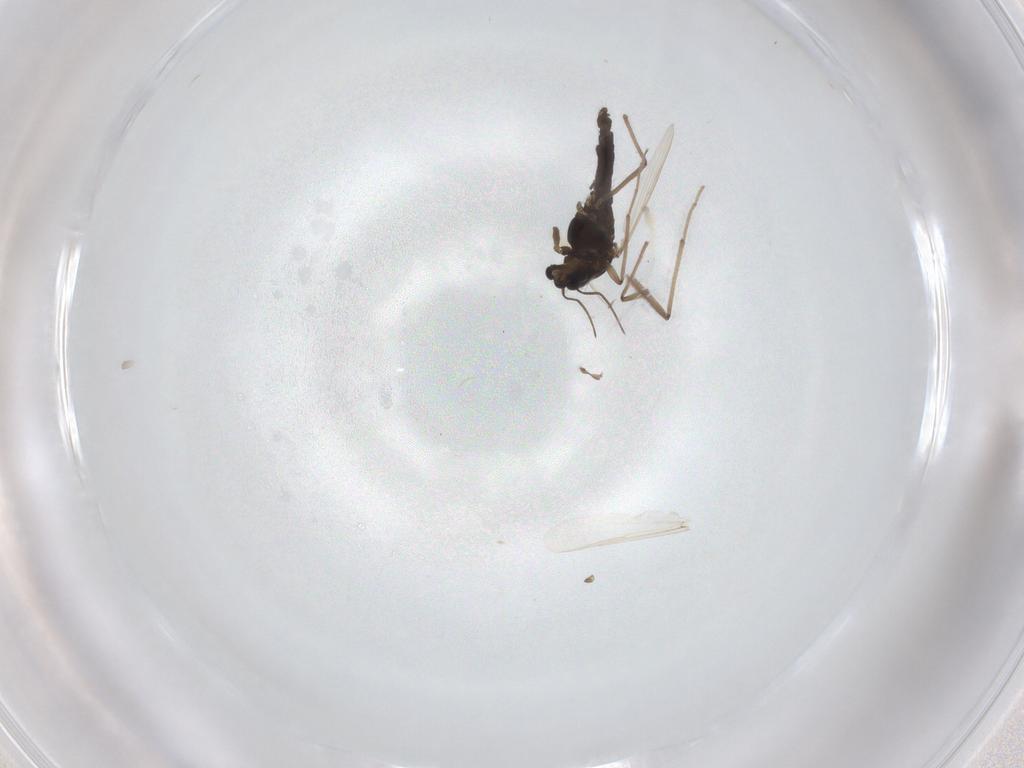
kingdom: Animalia
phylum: Arthropoda
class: Insecta
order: Diptera
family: Chironomidae
